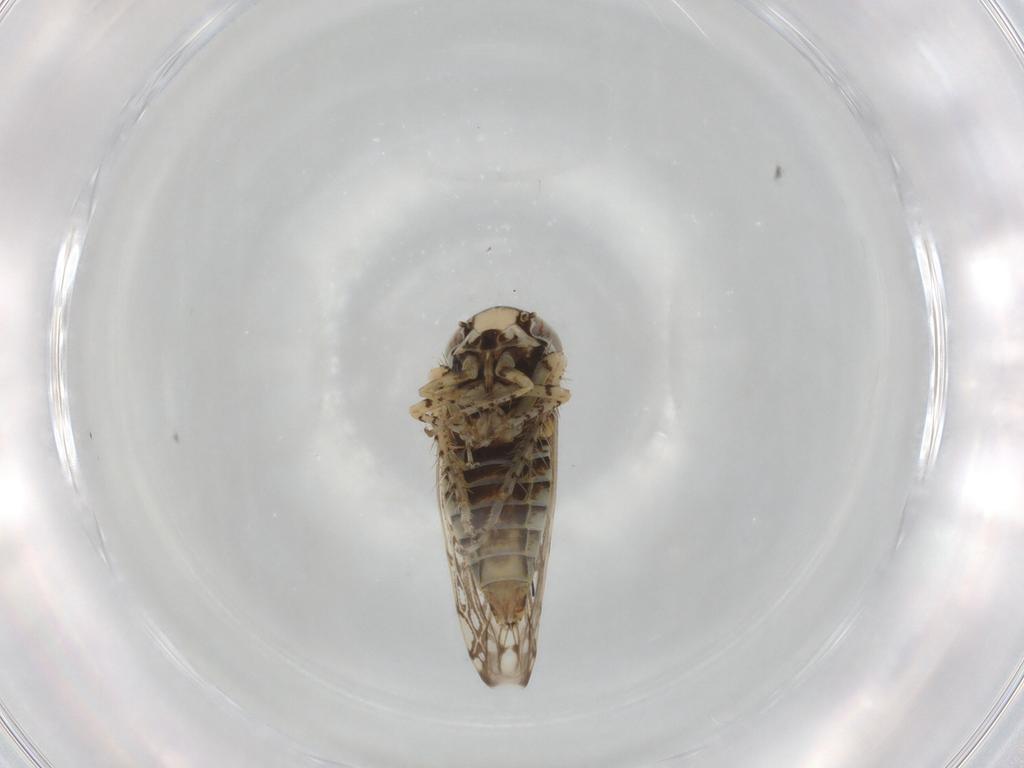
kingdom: Animalia
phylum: Arthropoda
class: Insecta
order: Hemiptera
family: Cicadellidae
